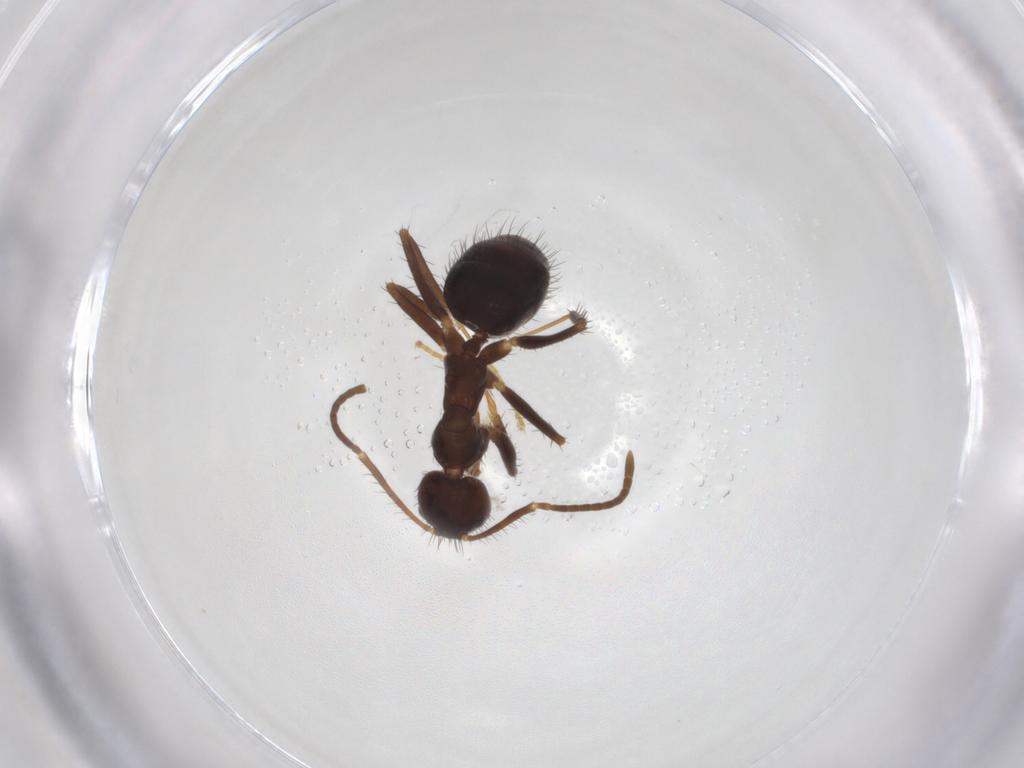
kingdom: Animalia
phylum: Arthropoda
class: Insecta
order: Hymenoptera
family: Formicidae
